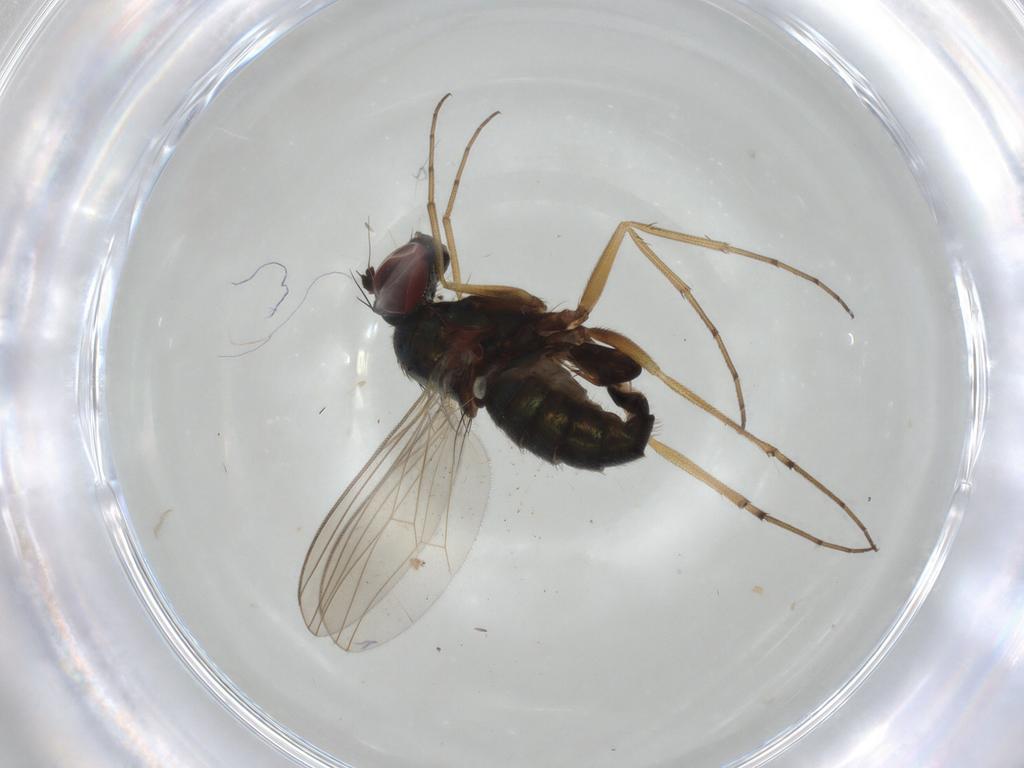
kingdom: Animalia
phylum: Arthropoda
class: Insecta
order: Diptera
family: Dolichopodidae
